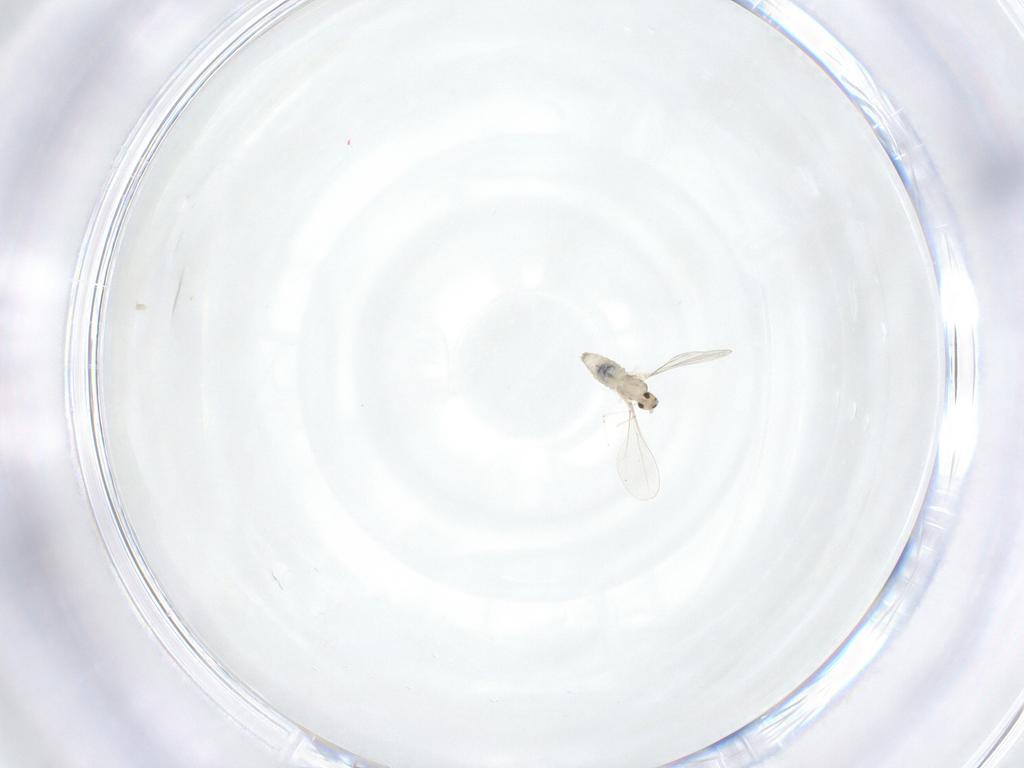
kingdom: Animalia
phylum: Arthropoda
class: Insecta
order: Diptera
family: Cecidomyiidae
